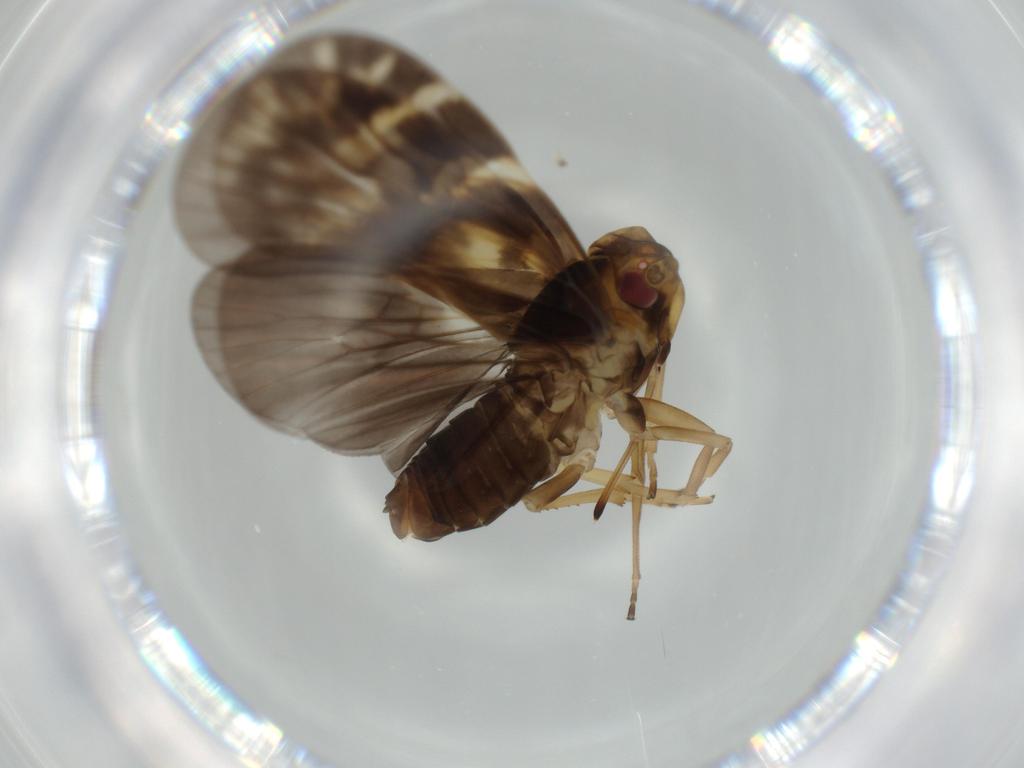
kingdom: Animalia
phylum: Arthropoda
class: Insecta
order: Hemiptera
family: Cixiidae
